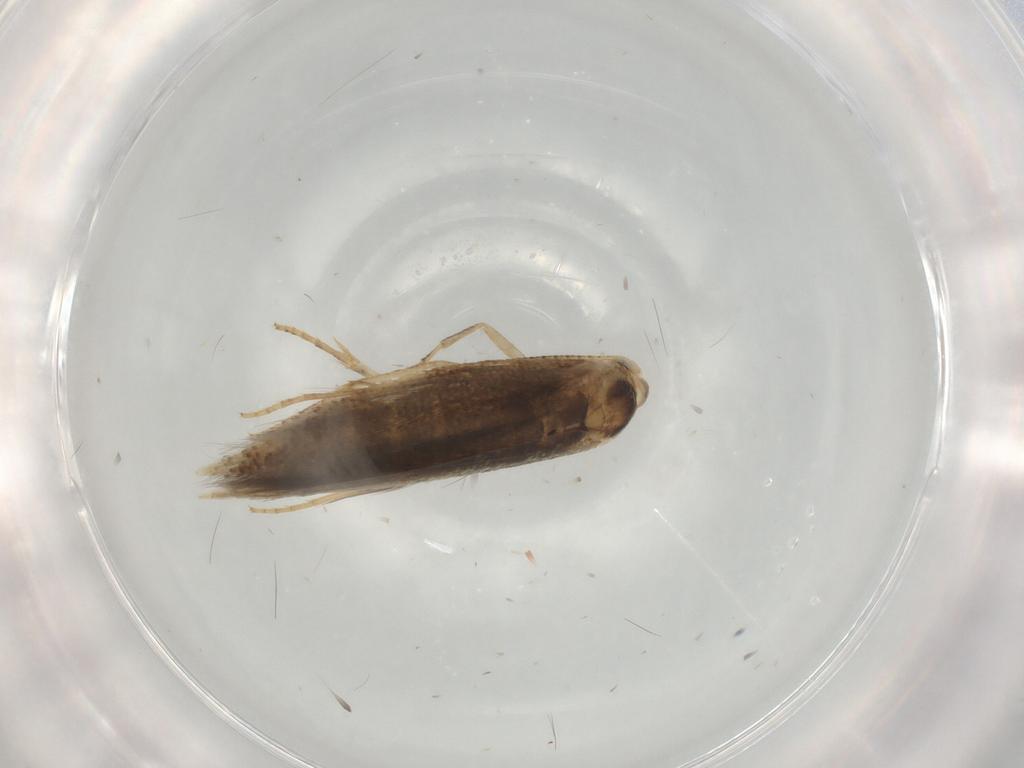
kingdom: Animalia
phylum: Arthropoda
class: Insecta
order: Lepidoptera
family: Bucculatricidae
